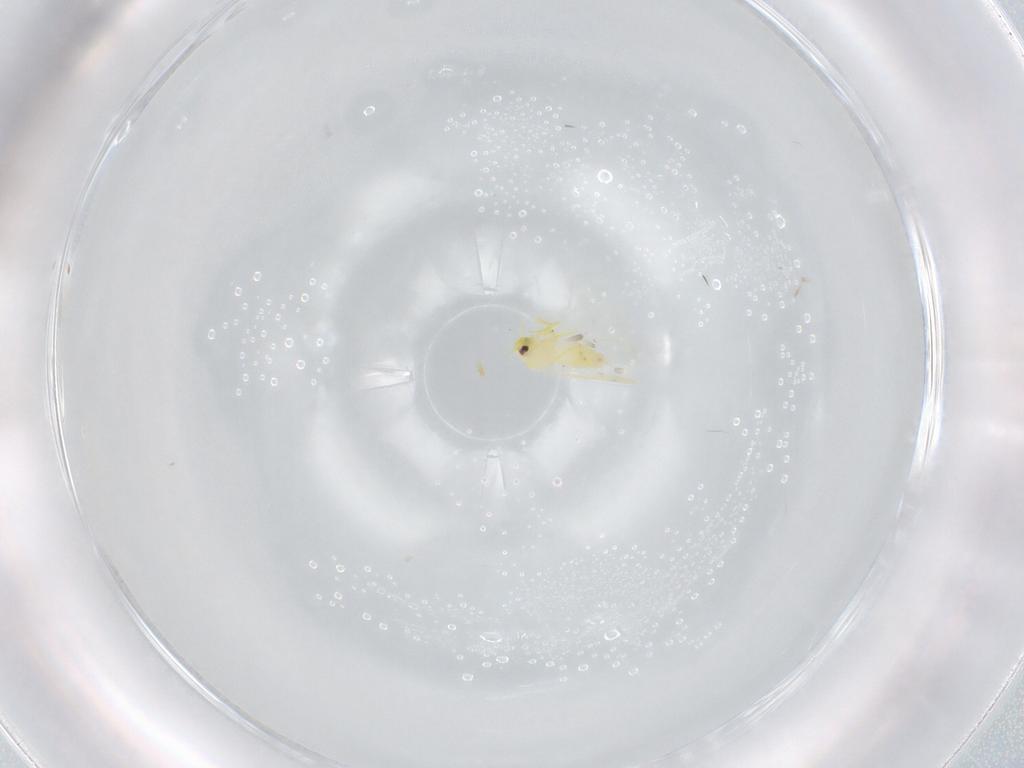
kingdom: Animalia
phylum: Arthropoda
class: Insecta
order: Hemiptera
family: Aleyrodidae
